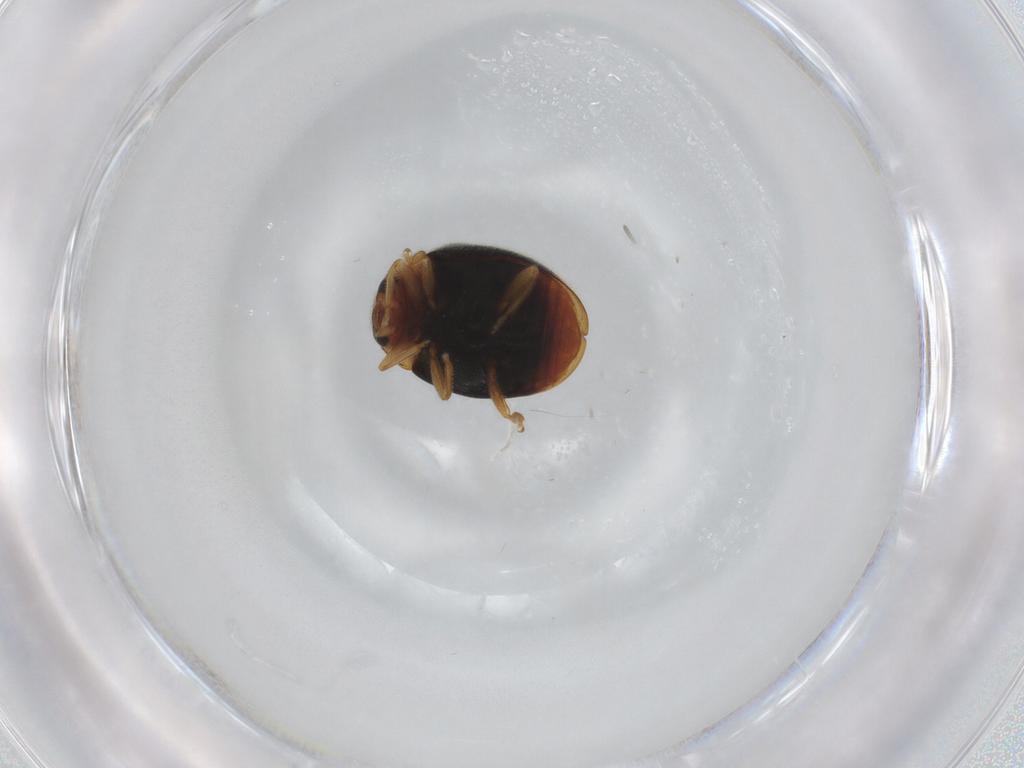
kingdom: Animalia
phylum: Arthropoda
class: Insecta
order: Coleoptera
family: Coccinellidae
